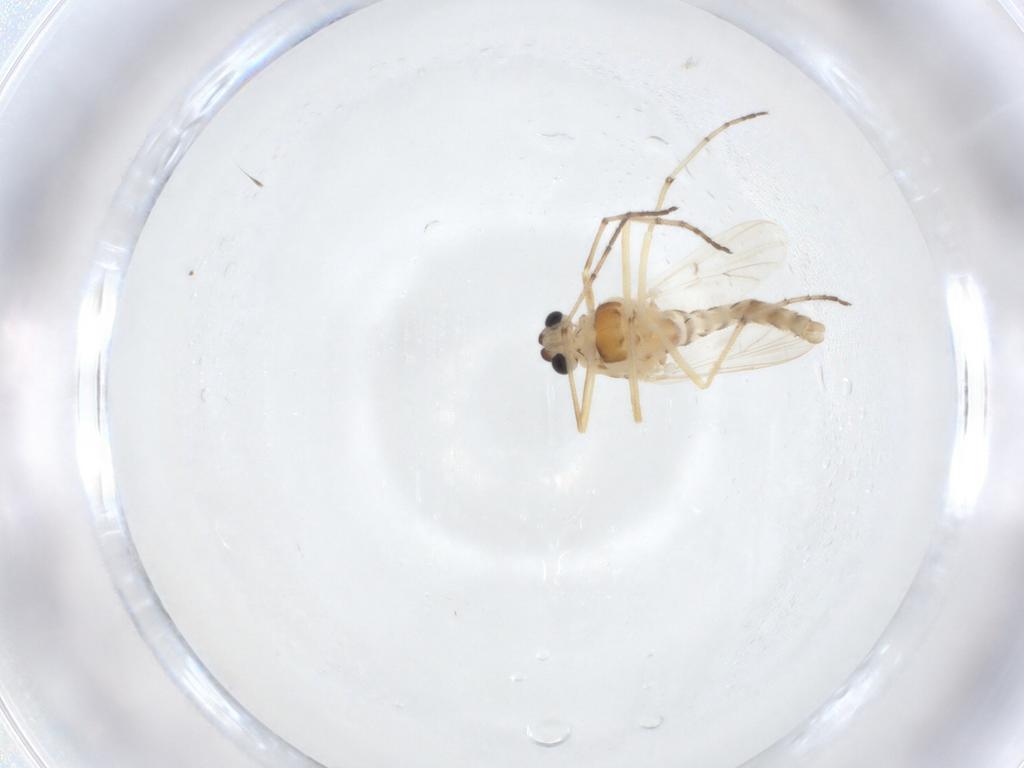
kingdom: Animalia
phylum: Arthropoda
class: Insecta
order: Diptera
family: Chironomidae
